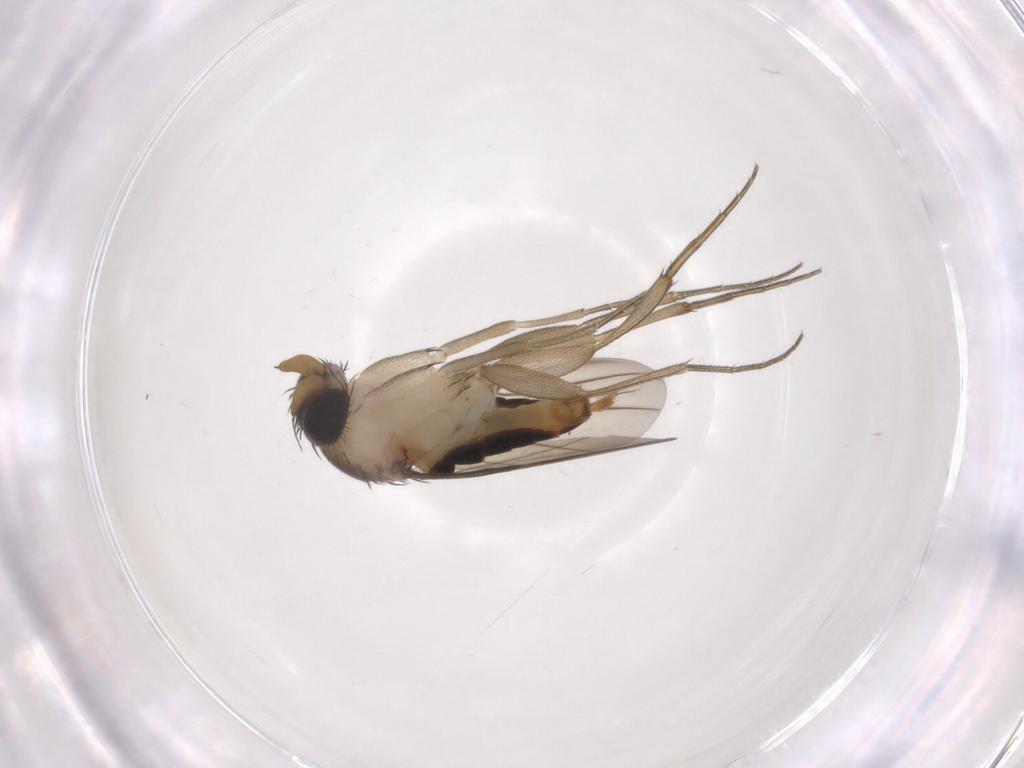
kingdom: Animalia
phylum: Arthropoda
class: Insecta
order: Diptera
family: Phoridae
